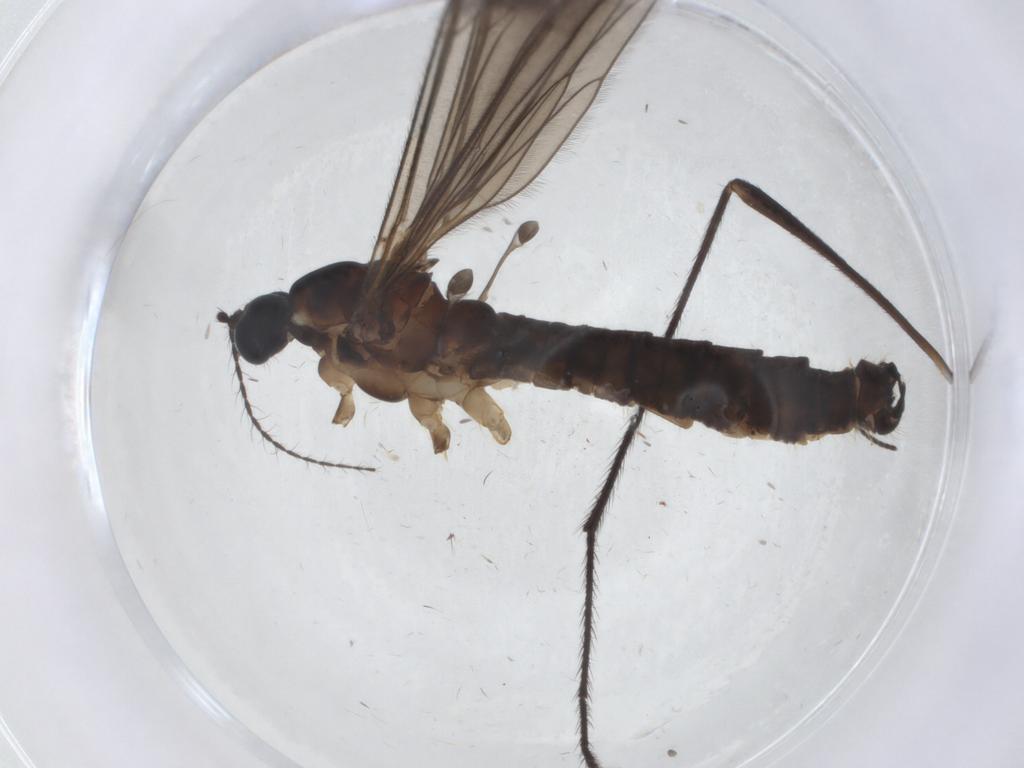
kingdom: Animalia
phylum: Arthropoda
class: Insecta
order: Diptera
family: Limoniidae
